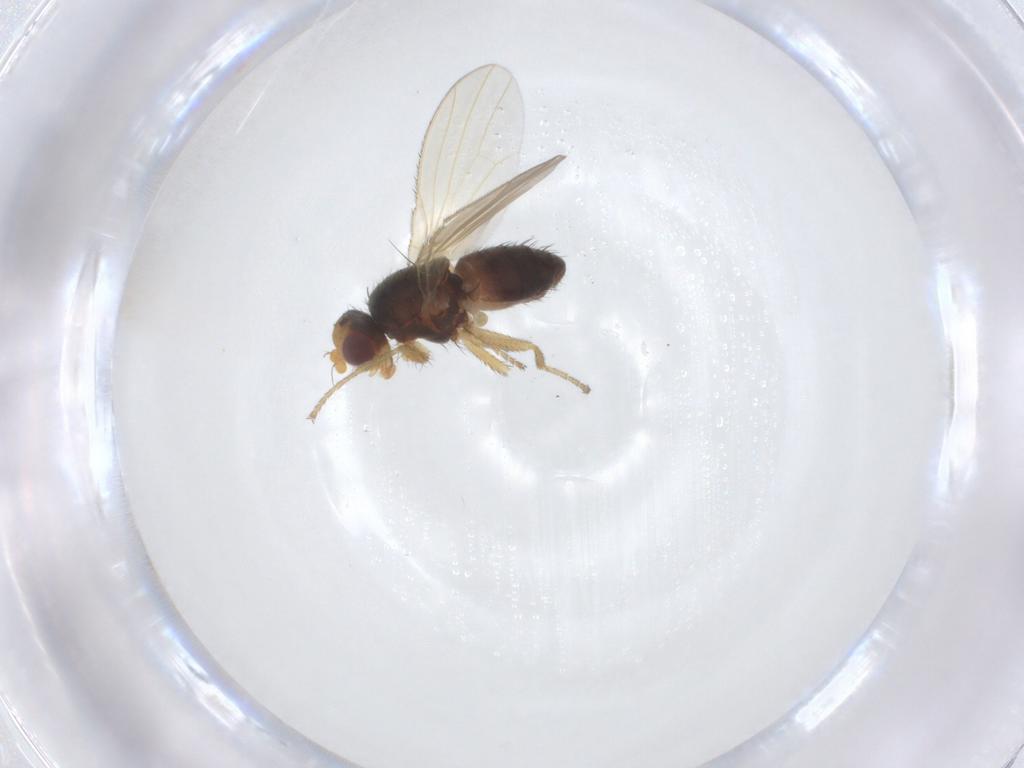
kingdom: Animalia
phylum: Arthropoda
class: Insecta
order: Diptera
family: Heleomyzidae
